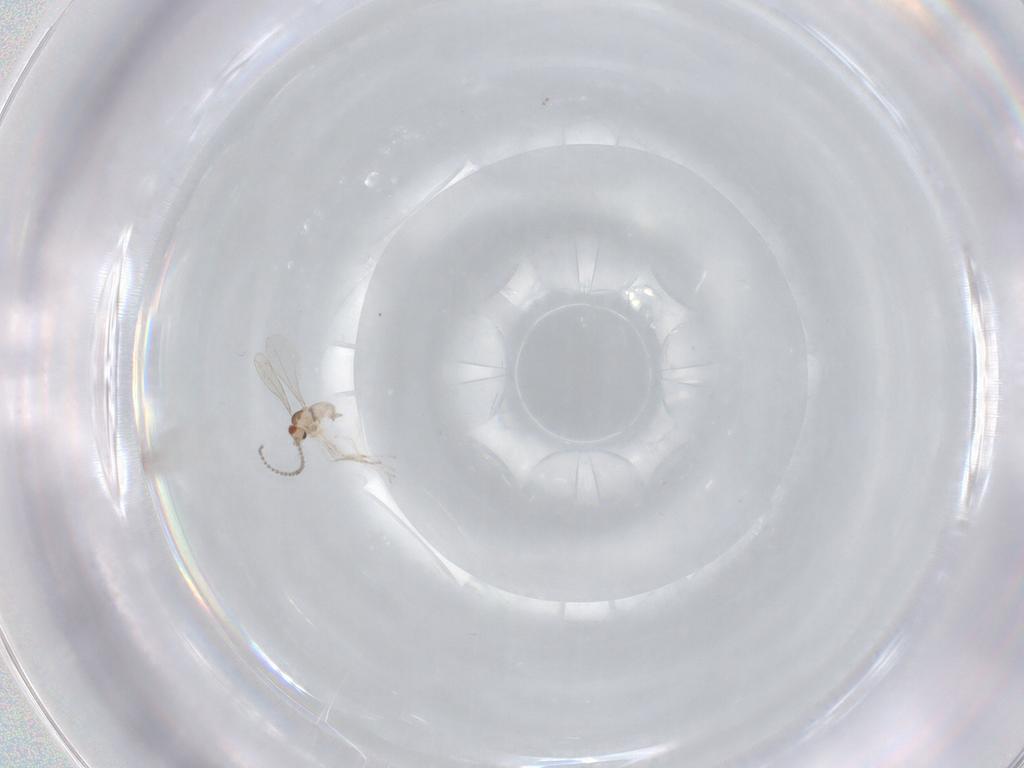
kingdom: Animalia
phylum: Arthropoda
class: Insecta
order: Diptera
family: Cecidomyiidae
